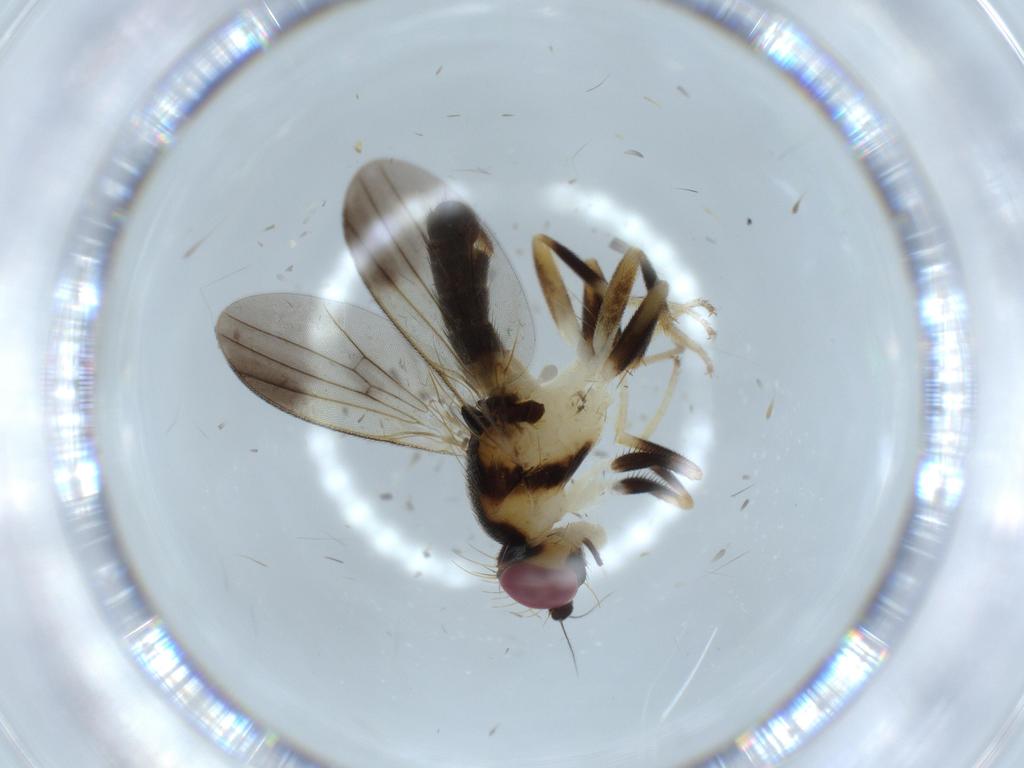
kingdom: Animalia
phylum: Arthropoda
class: Insecta
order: Diptera
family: Clusiidae
